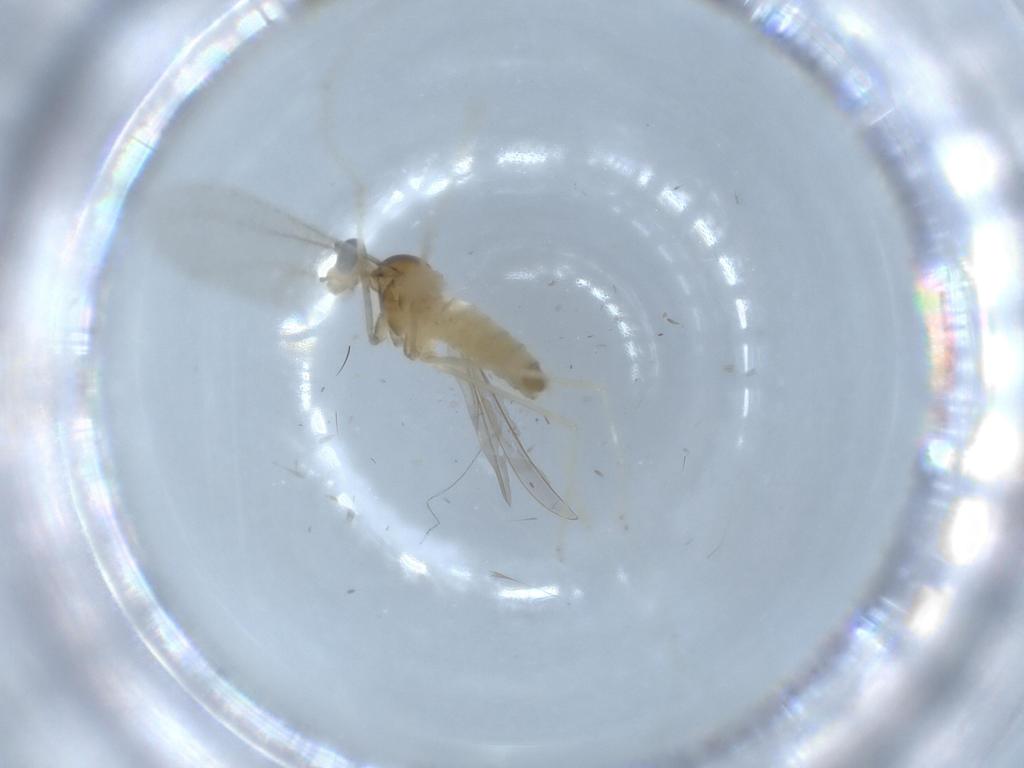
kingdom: Animalia
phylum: Arthropoda
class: Insecta
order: Diptera
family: Cecidomyiidae
